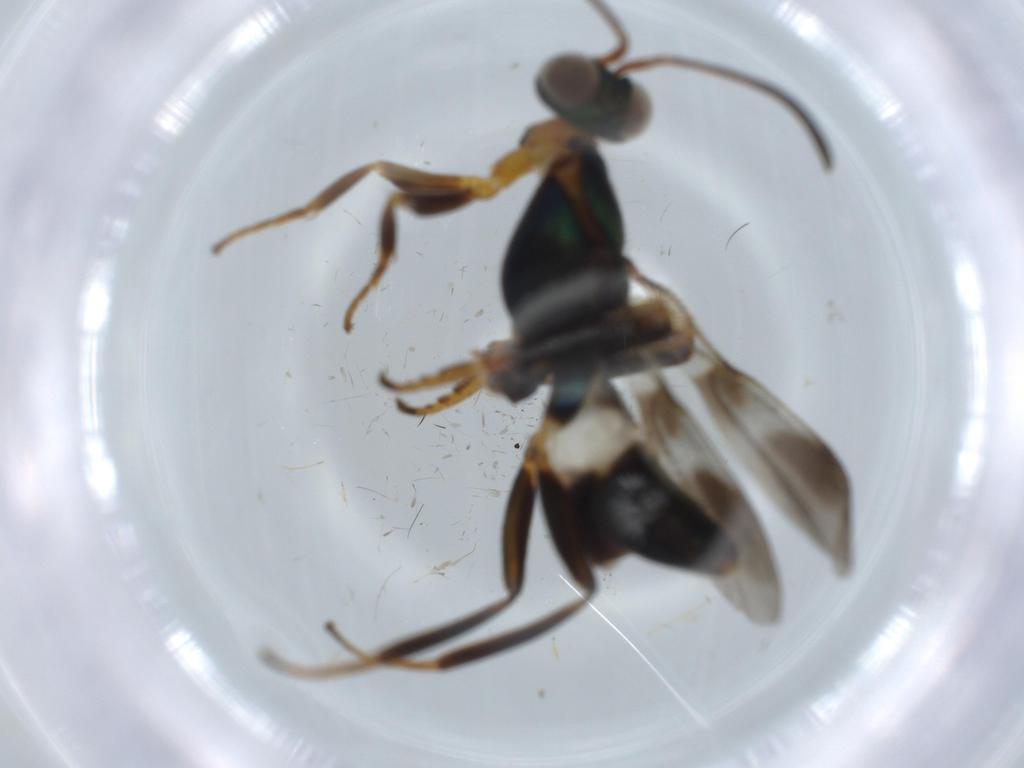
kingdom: Animalia
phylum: Arthropoda
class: Insecta
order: Hymenoptera
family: Eupelmidae
